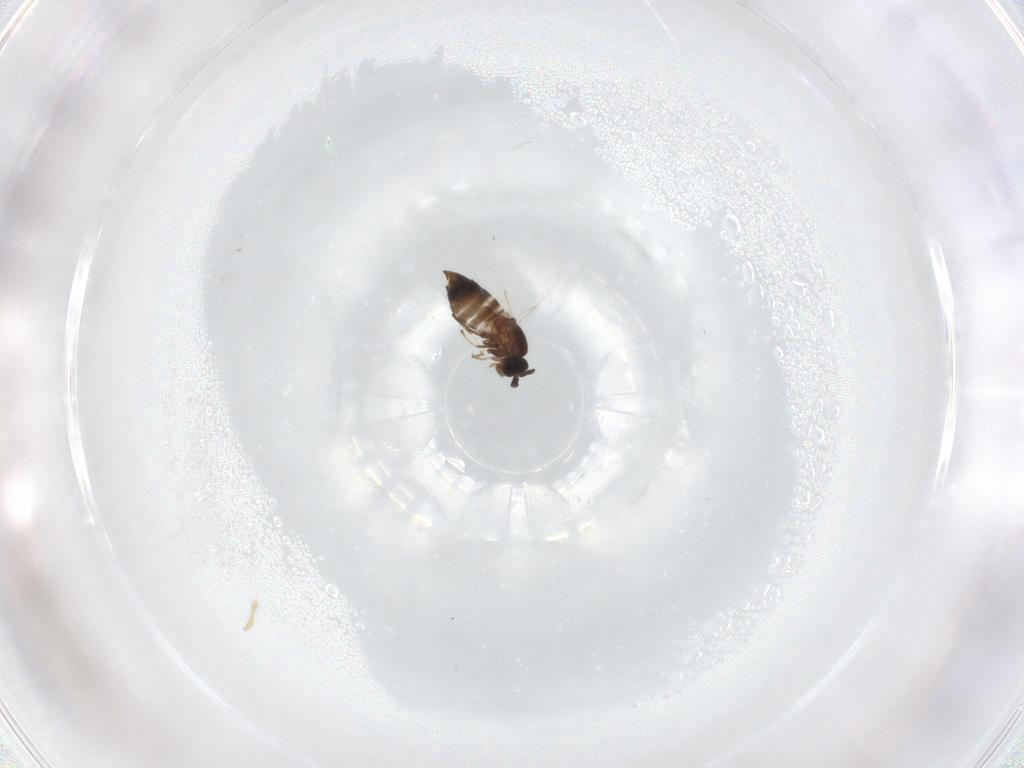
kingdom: Animalia
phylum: Arthropoda
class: Insecta
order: Diptera
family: Scatopsidae
